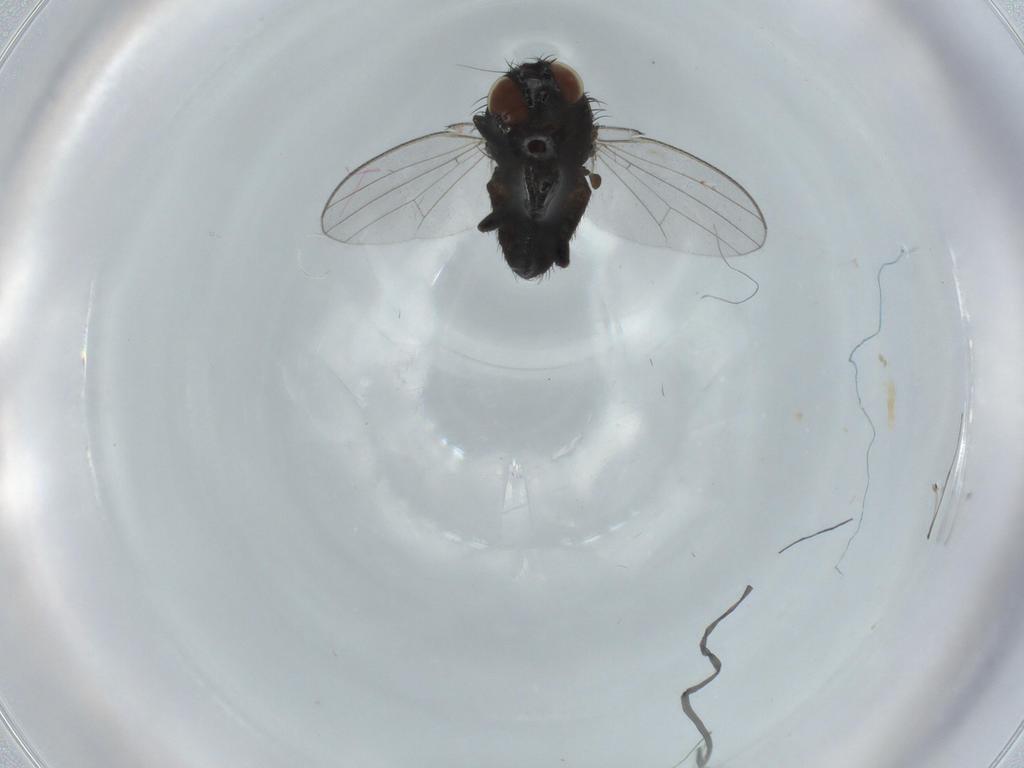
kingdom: Animalia
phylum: Arthropoda
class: Insecta
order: Diptera
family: Milichiidae
